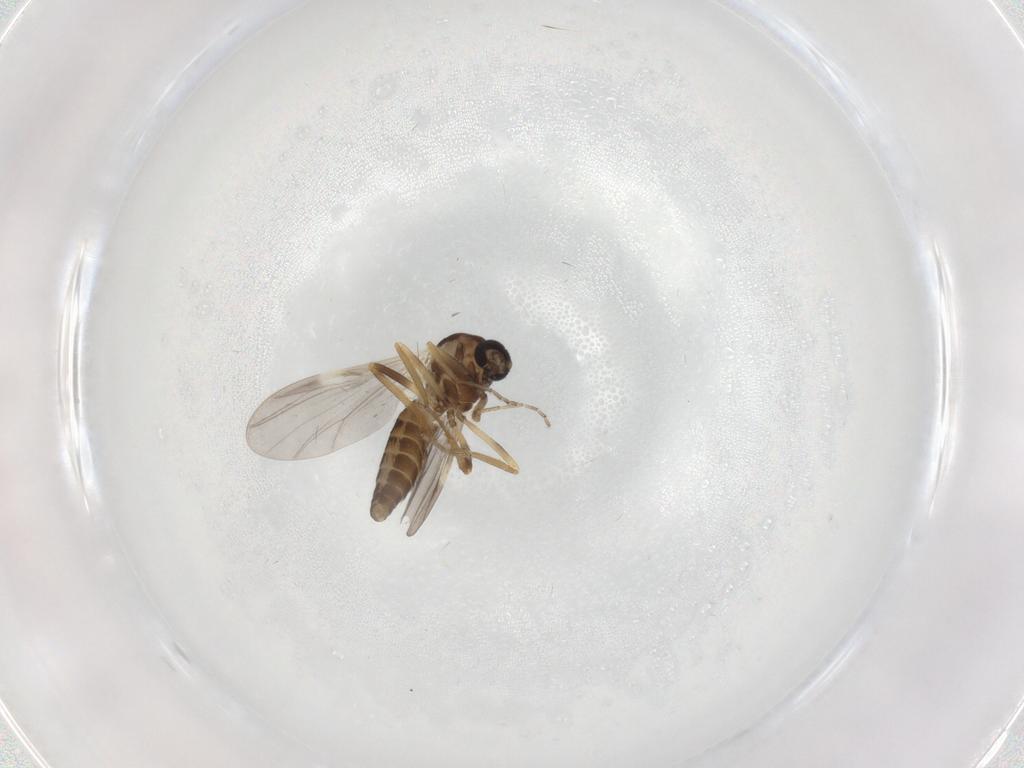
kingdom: Animalia
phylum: Arthropoda
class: Insecta
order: Diptera
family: Ceratopogonidae
